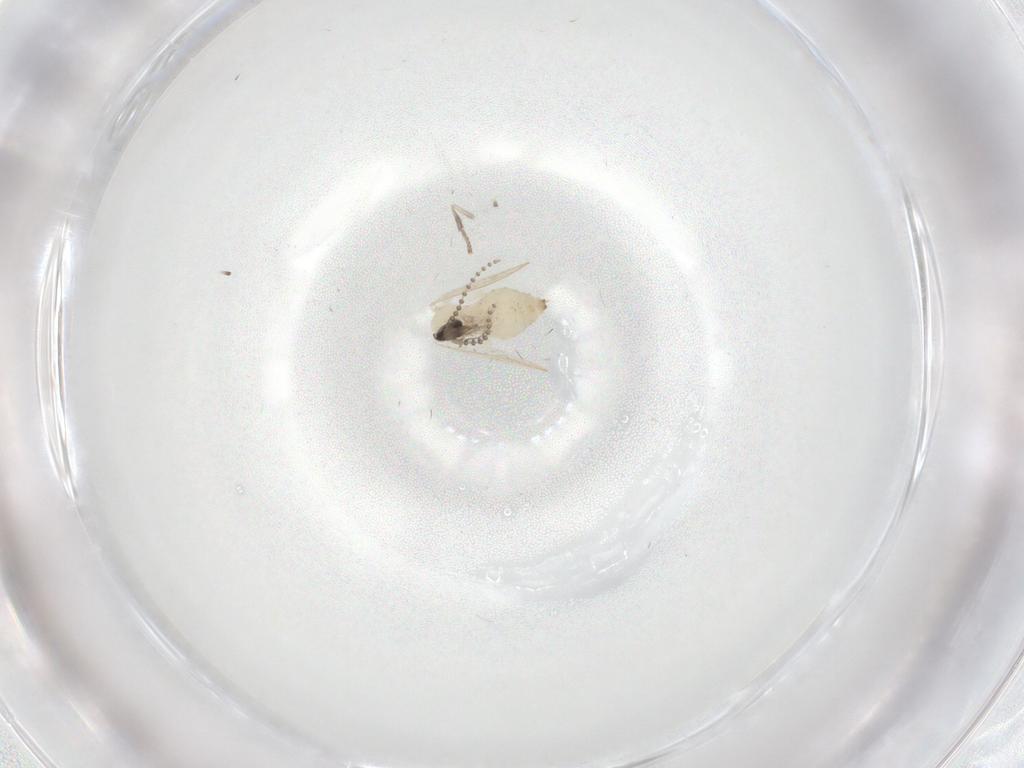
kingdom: Animalia
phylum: Arthropoda
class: Insecta
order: Diptera
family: Psychodidae
